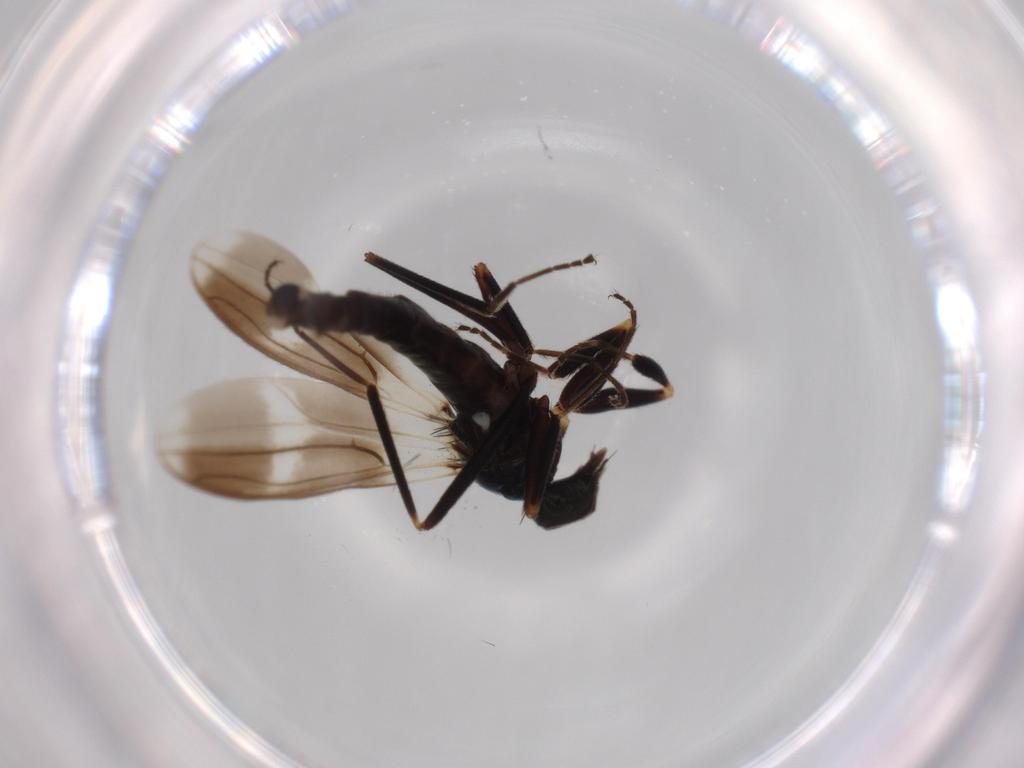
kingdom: Animalia
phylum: Arthropoda
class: Insecta
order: Diptera
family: Hybotidae
